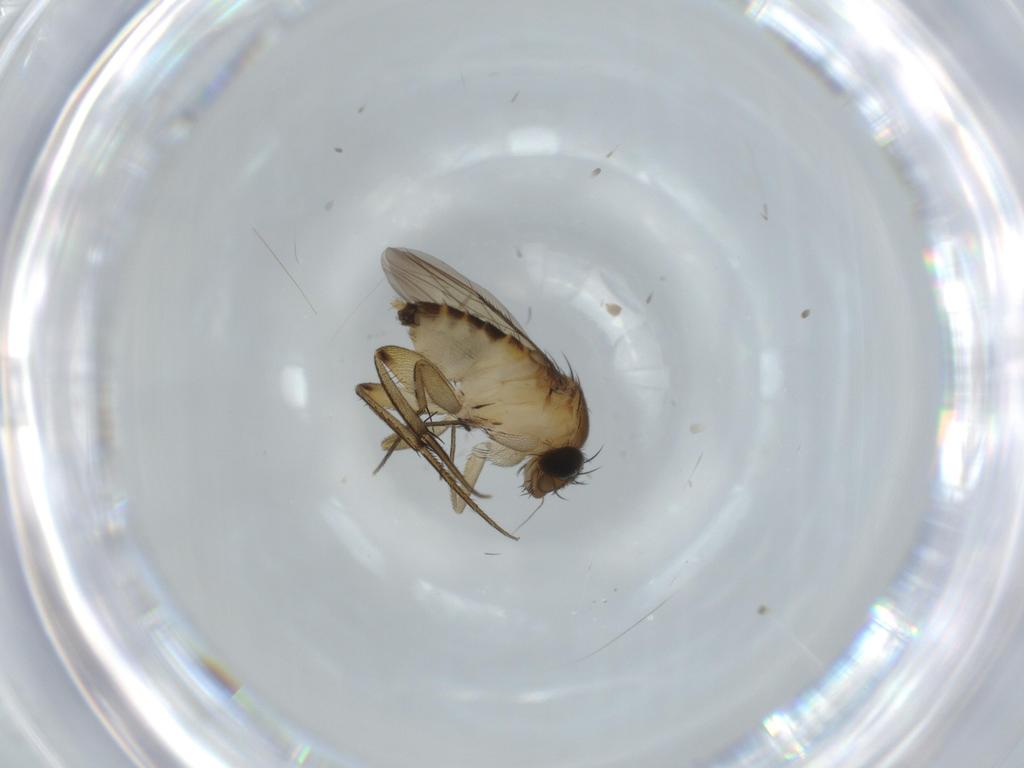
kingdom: Animalia
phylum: Arthropoda
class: Insecta
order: Diptera
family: Phoridae
